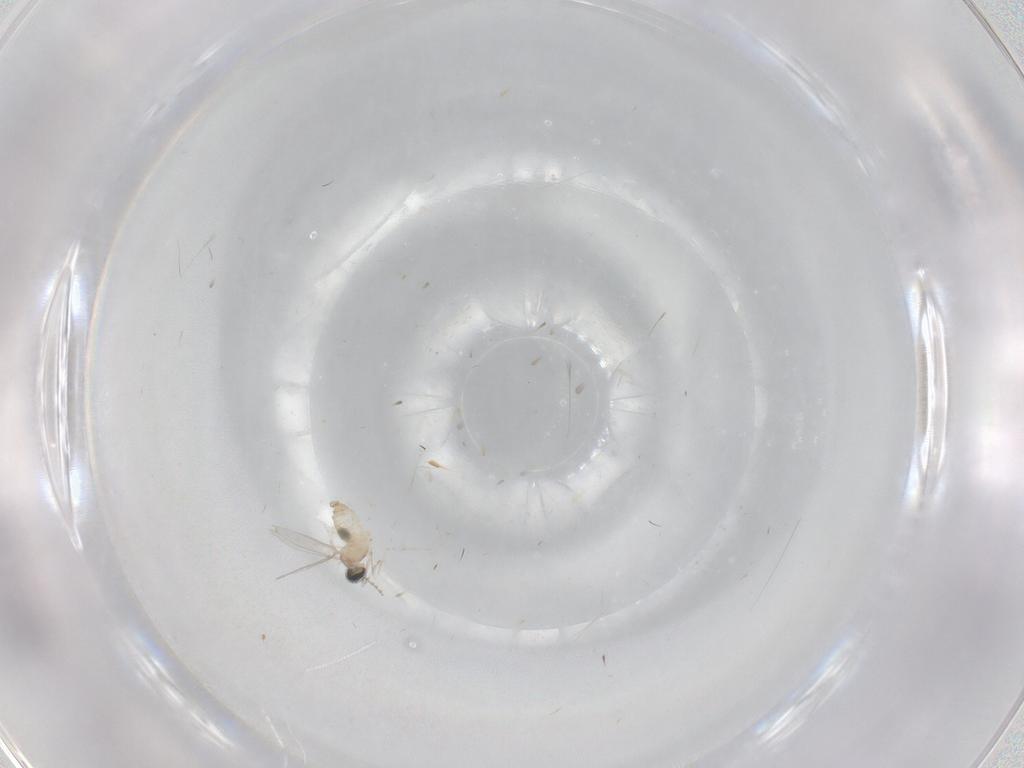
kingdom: Animalia
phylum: Arthropoda
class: Insecta
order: Diptera
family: Cecidomyiidae
